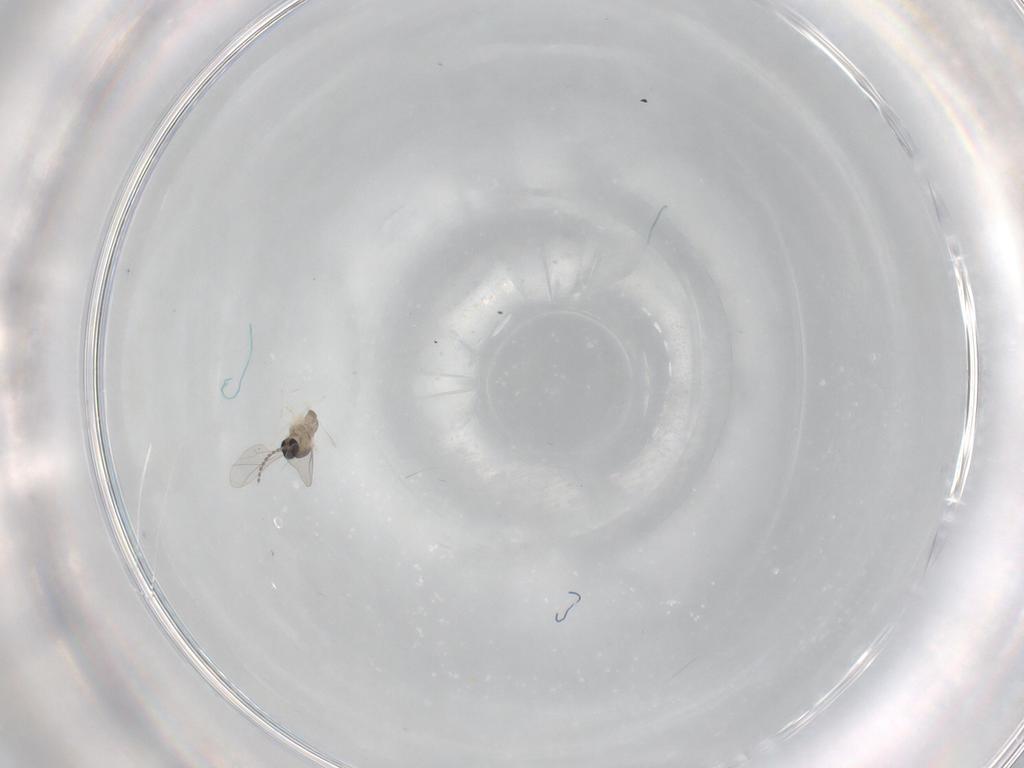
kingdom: Animalia
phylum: Arthropoda
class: Insecta
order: Diptera
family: Cecidomyiidae
